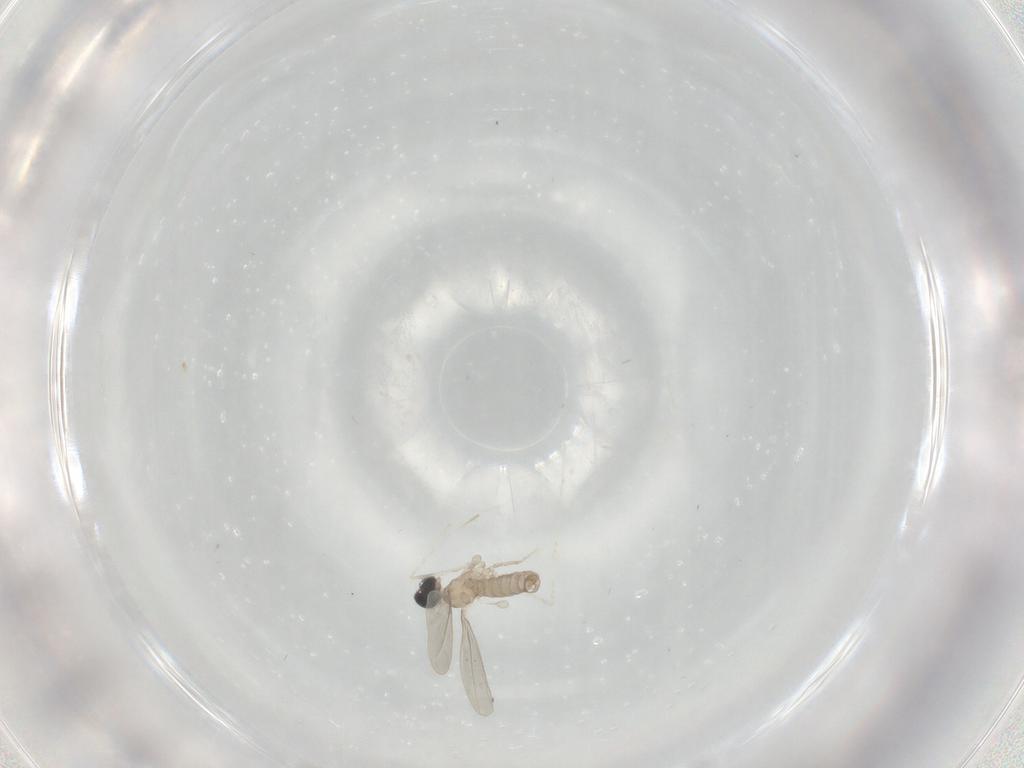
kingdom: Animalia
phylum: Arthropoda
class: Insecta
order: Diptera
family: Cecidomyiidae
